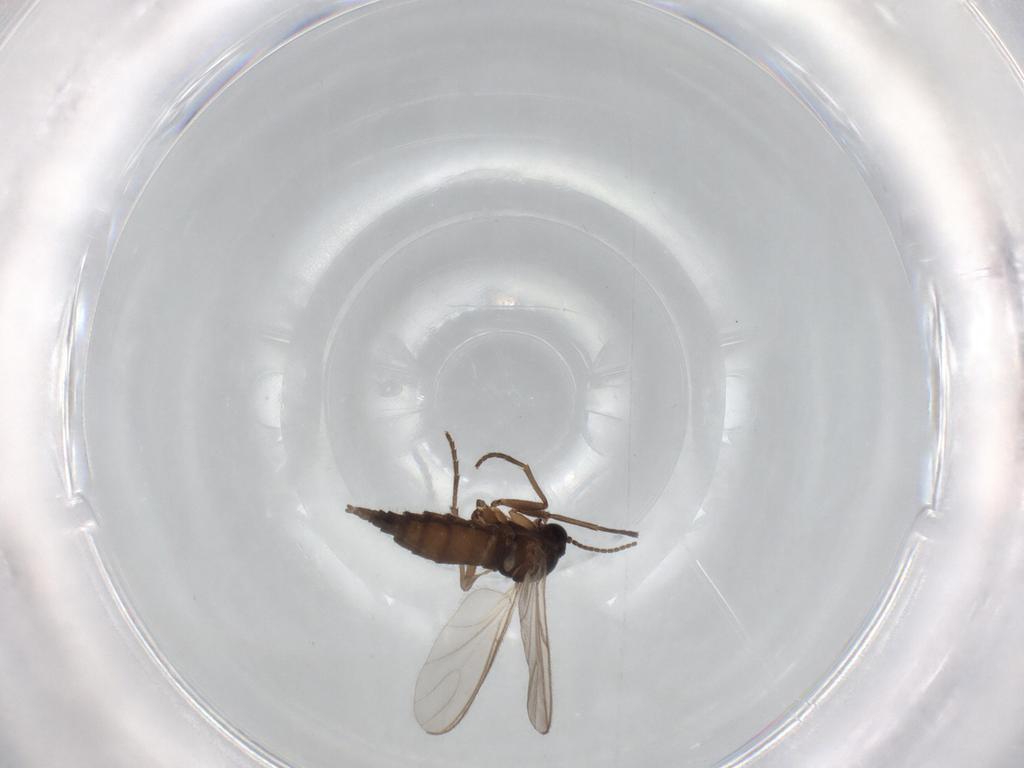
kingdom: Animalia
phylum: Arthropoda
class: Insecta
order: Diptera
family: Sciaridae
